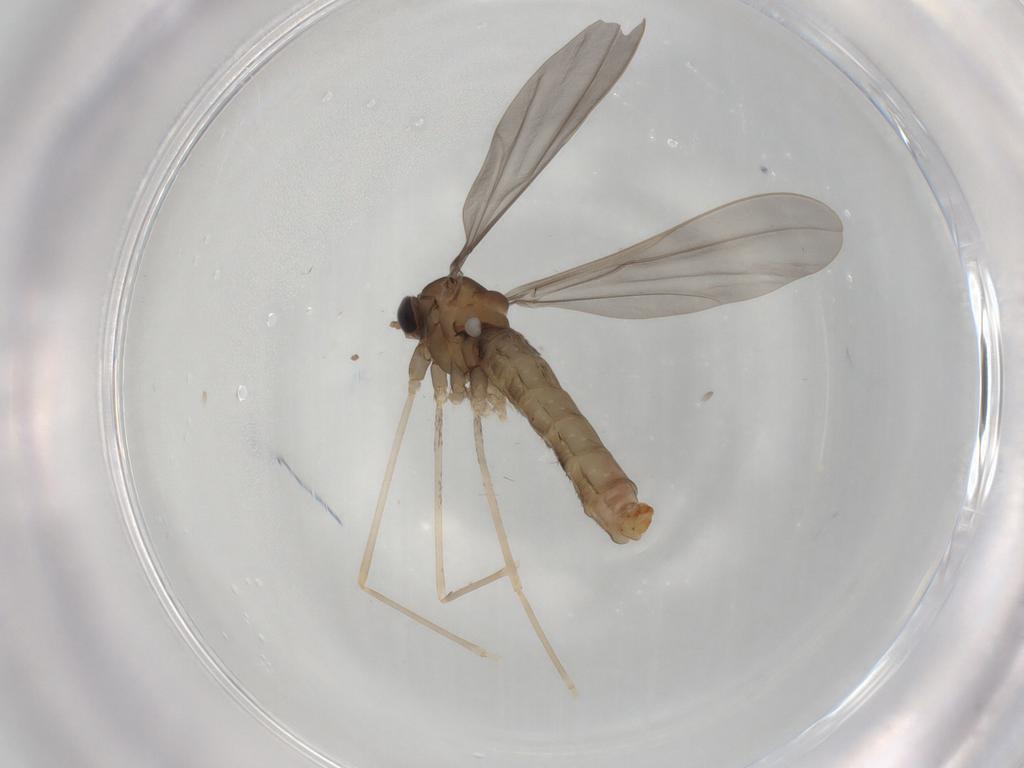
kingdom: Animalia
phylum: Arthropoda
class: Insecta
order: Diptera
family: Cecidomyiidae
